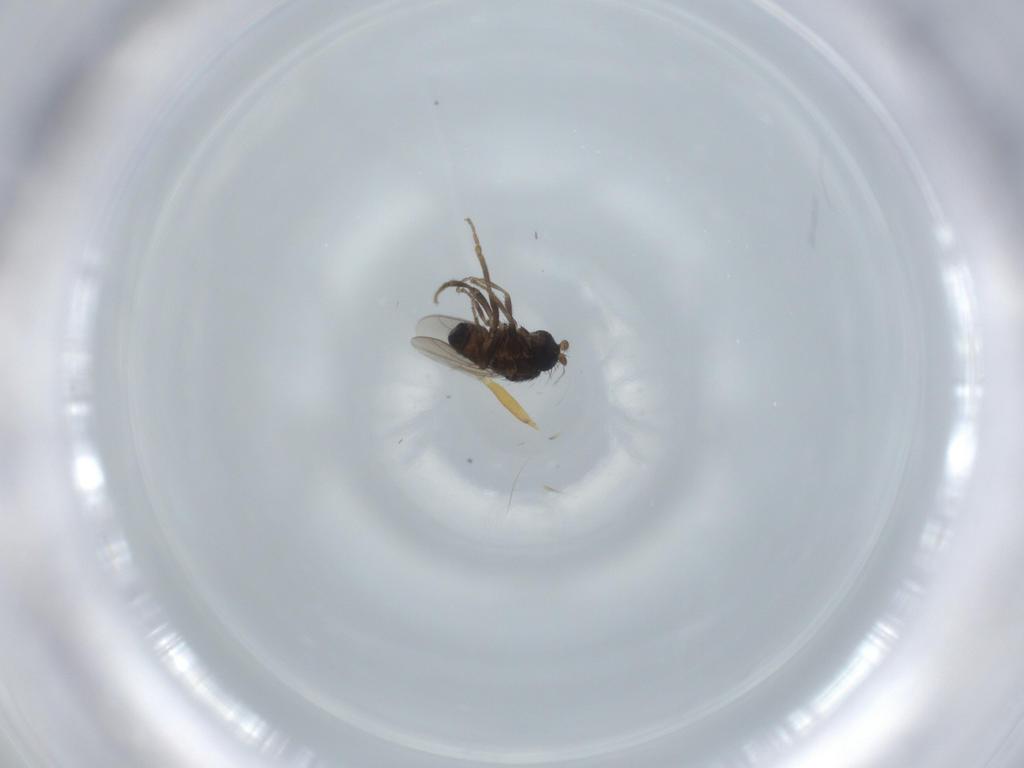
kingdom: Animalia
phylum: Arthropoda
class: Insecta
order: Diptera
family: Sphaeroceridae
